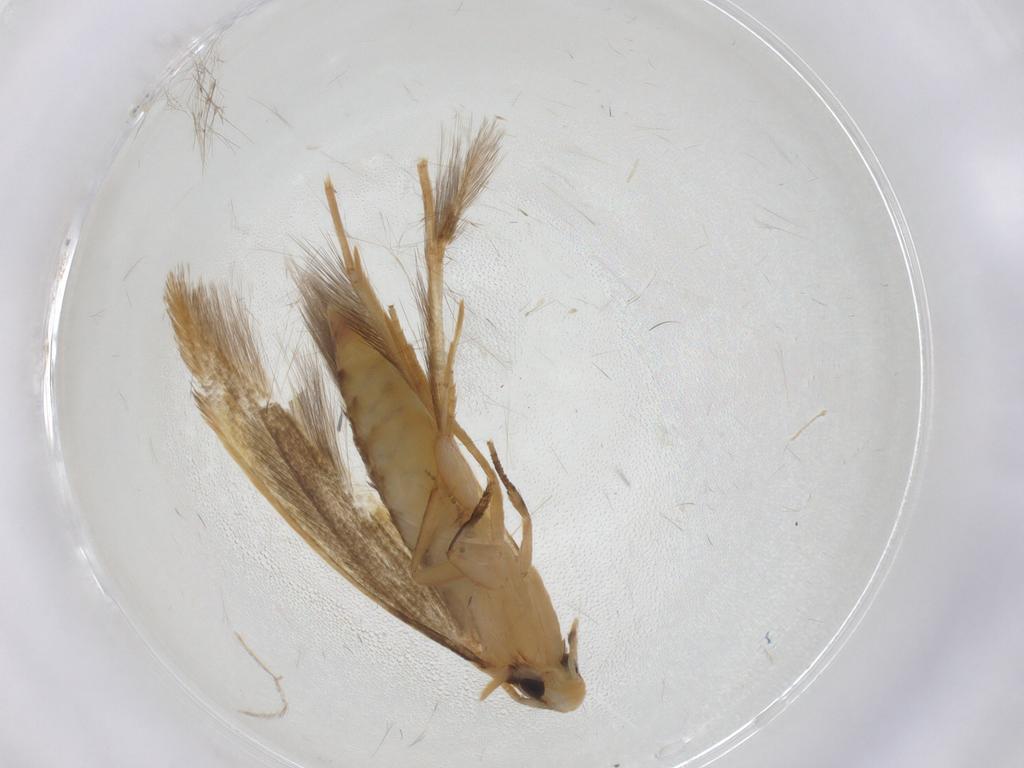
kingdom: Animalia
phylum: Arthropoda
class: Insecta
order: Lepidoptera
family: Tineidae
